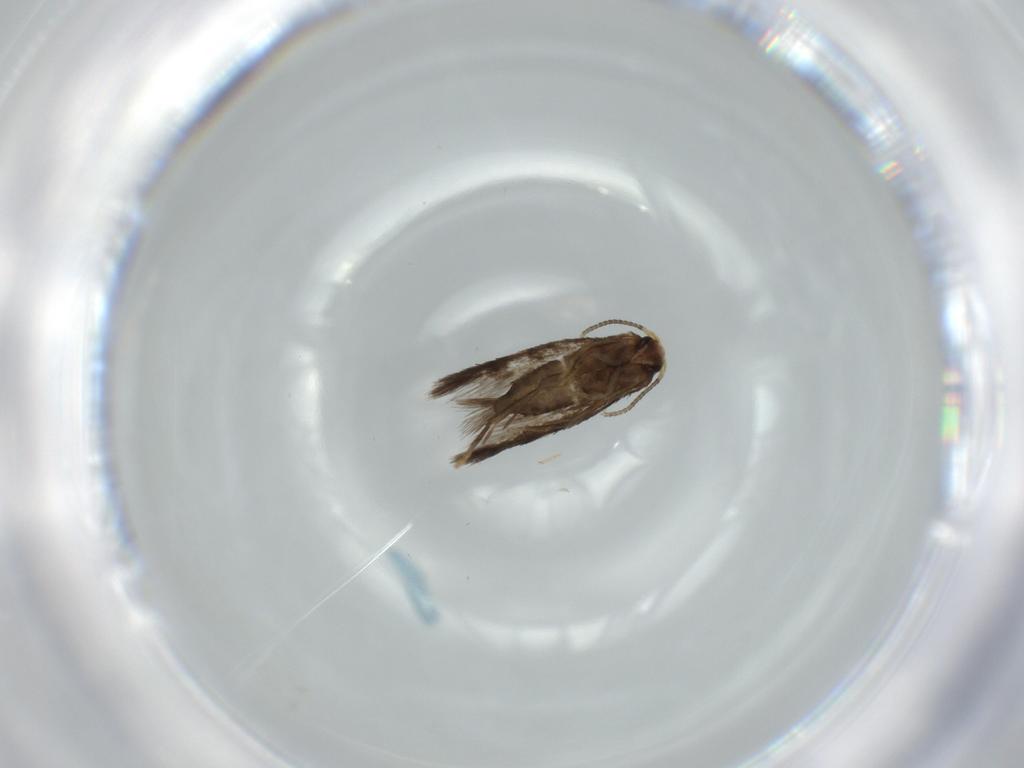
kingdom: Animalia
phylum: Arthropoda
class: Insecta
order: Lepidoptera
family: Nepticulidae
